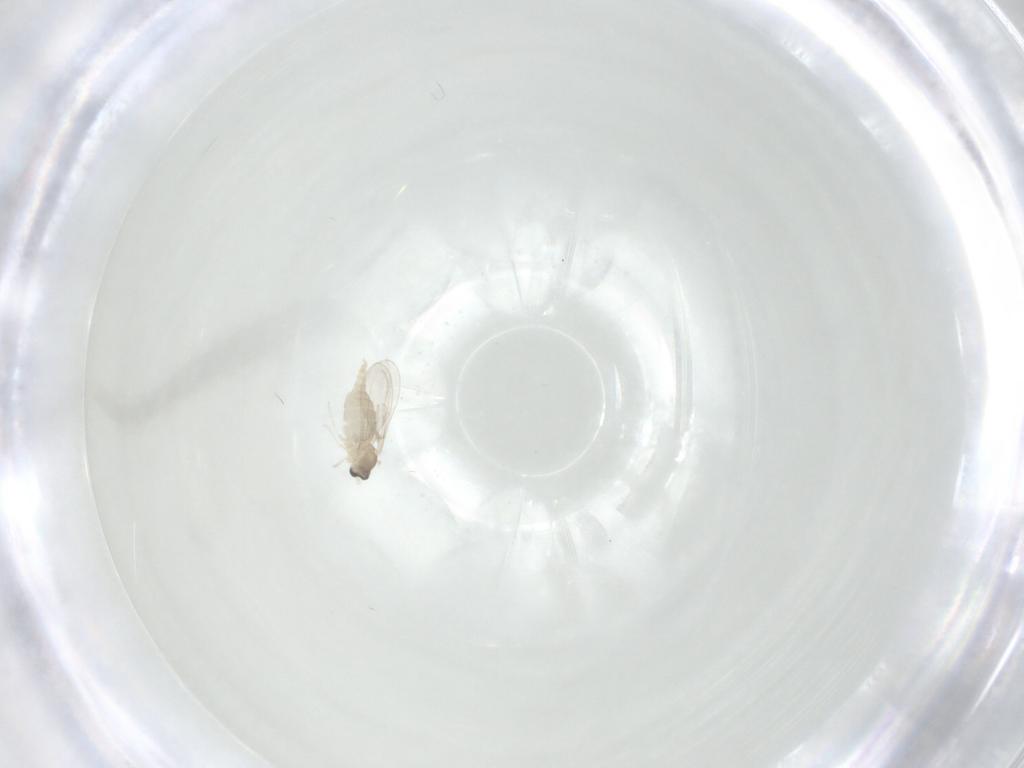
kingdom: Animalia
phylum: Arthropoda
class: Insecta
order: Diptera
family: Cecidomyiidae
